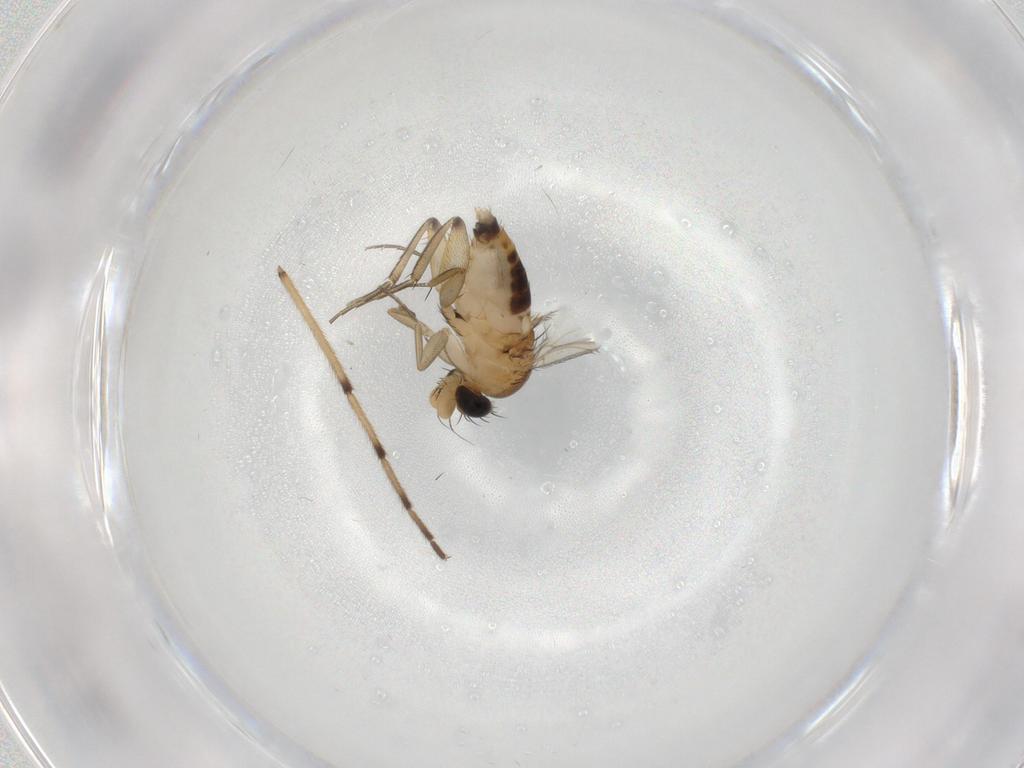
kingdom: Animalia
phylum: Arthropoda
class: Insecta
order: Diptera
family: Phoridae
